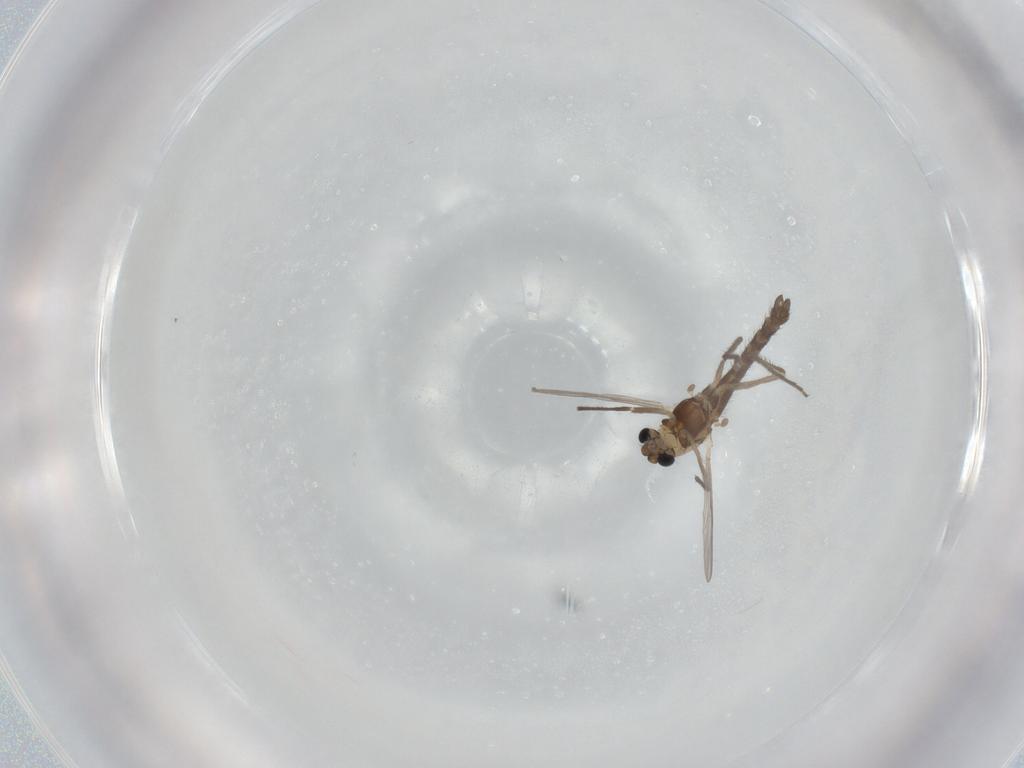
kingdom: Animalia
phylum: Arthropoda
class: Insecta
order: Diptera
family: Chironomidae
